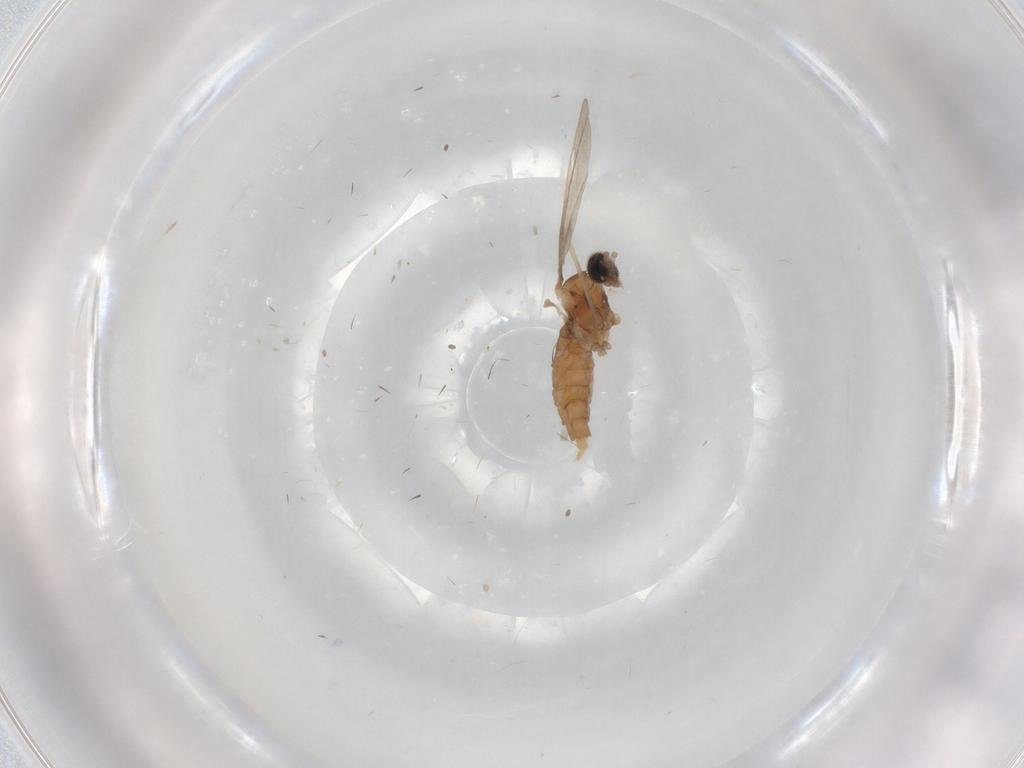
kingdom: Animalia
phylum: Arthropoda
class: Insecta
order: Diptera
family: Cecidomyiidae
